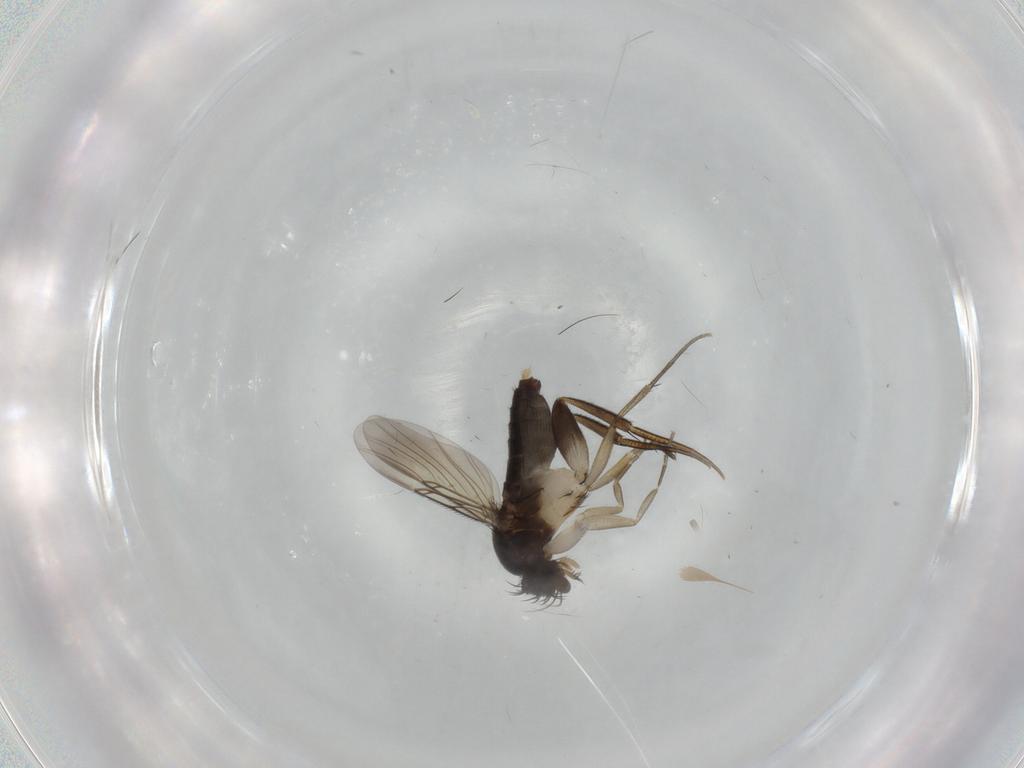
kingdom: Animalia
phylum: Arthropoda
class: Insecta
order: Diptera
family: Phoridae
